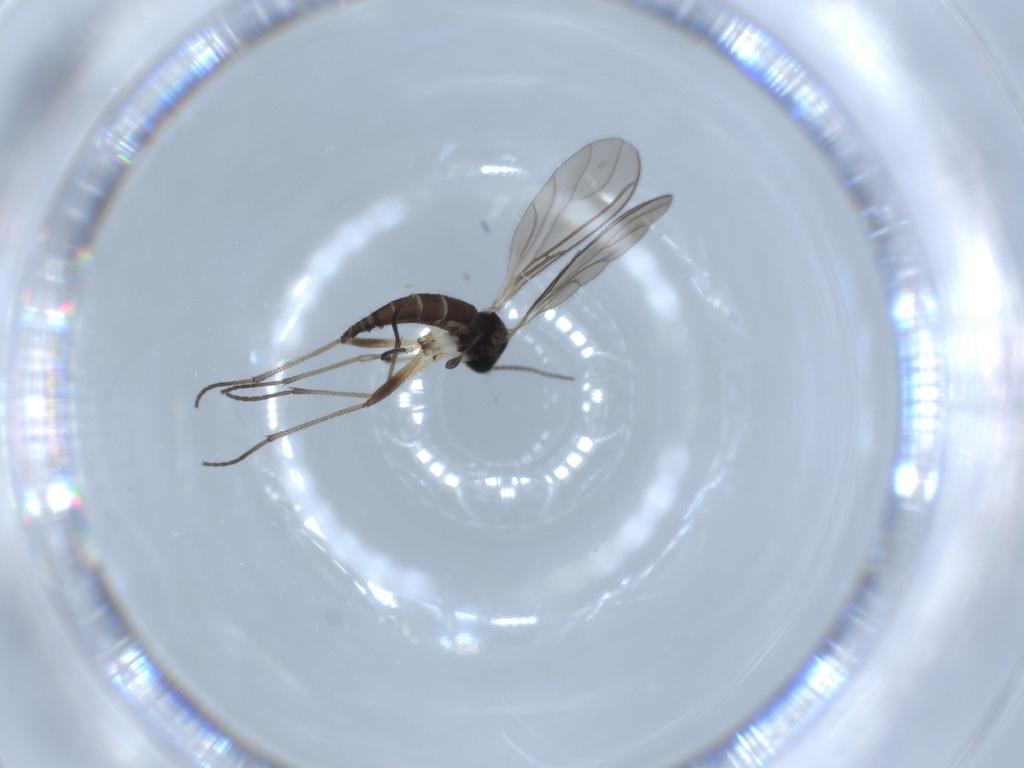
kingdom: Animalia
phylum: Arthropoda
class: Insecta
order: Diptera
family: Sciaridae
